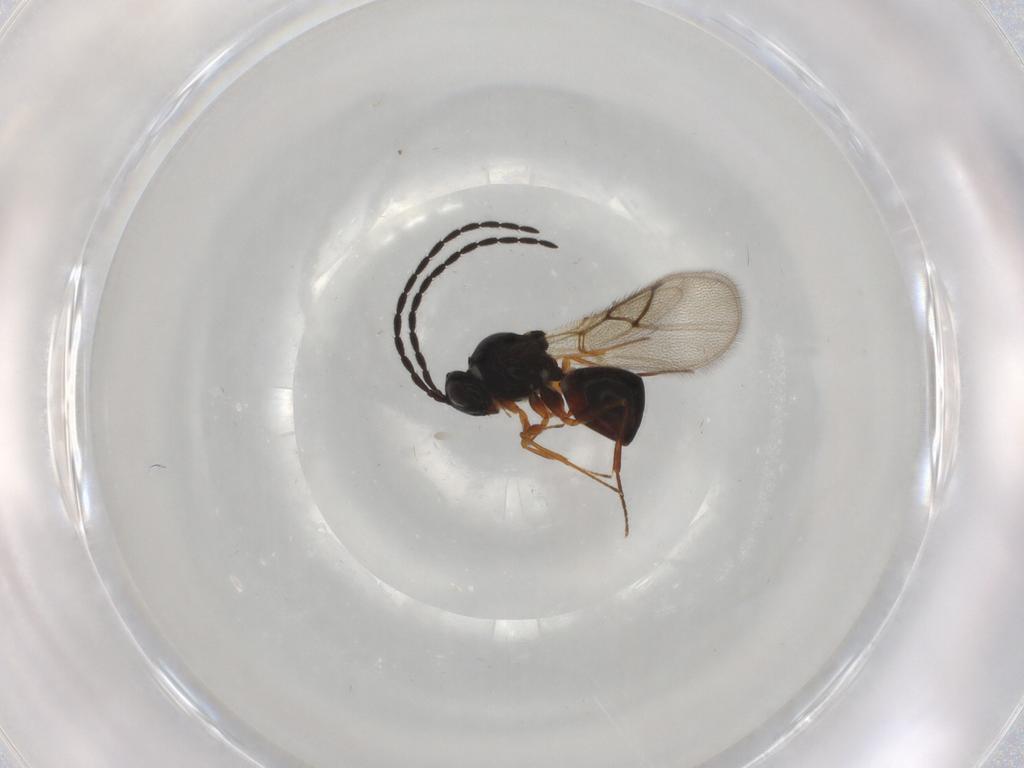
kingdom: Animalia
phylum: Arthropoda
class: Insecta
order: Hymenoptera
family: Figitidae
